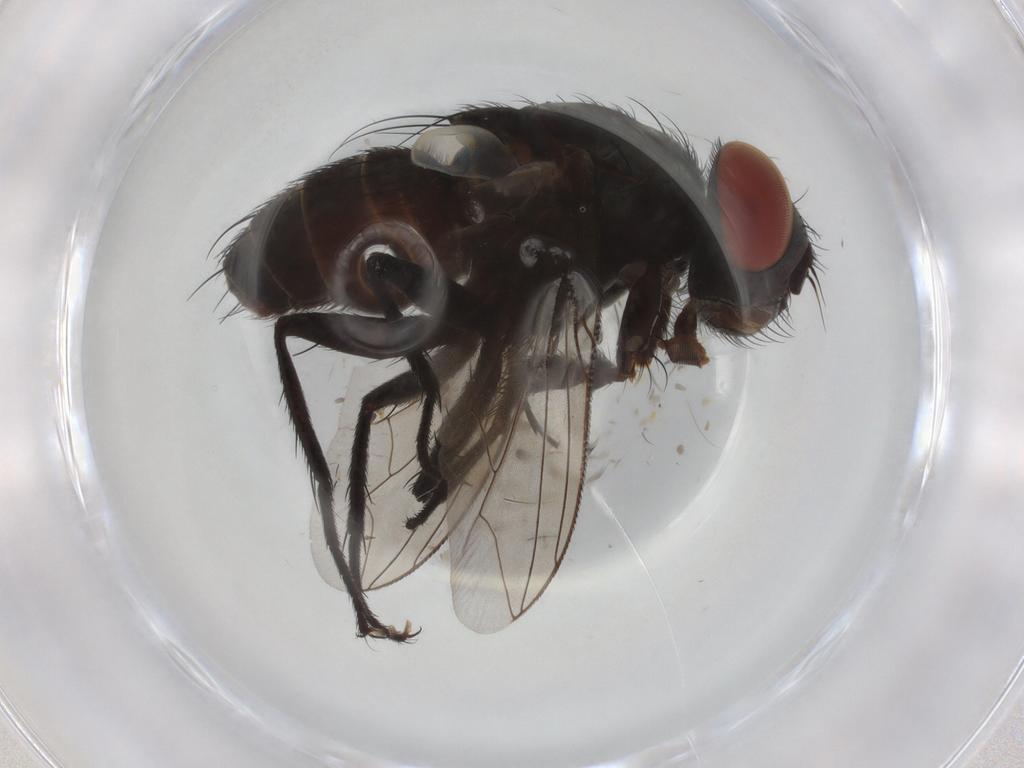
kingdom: Animalia
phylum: Arthropoda
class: Insecta
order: Diptera
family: Sarcophagidae
